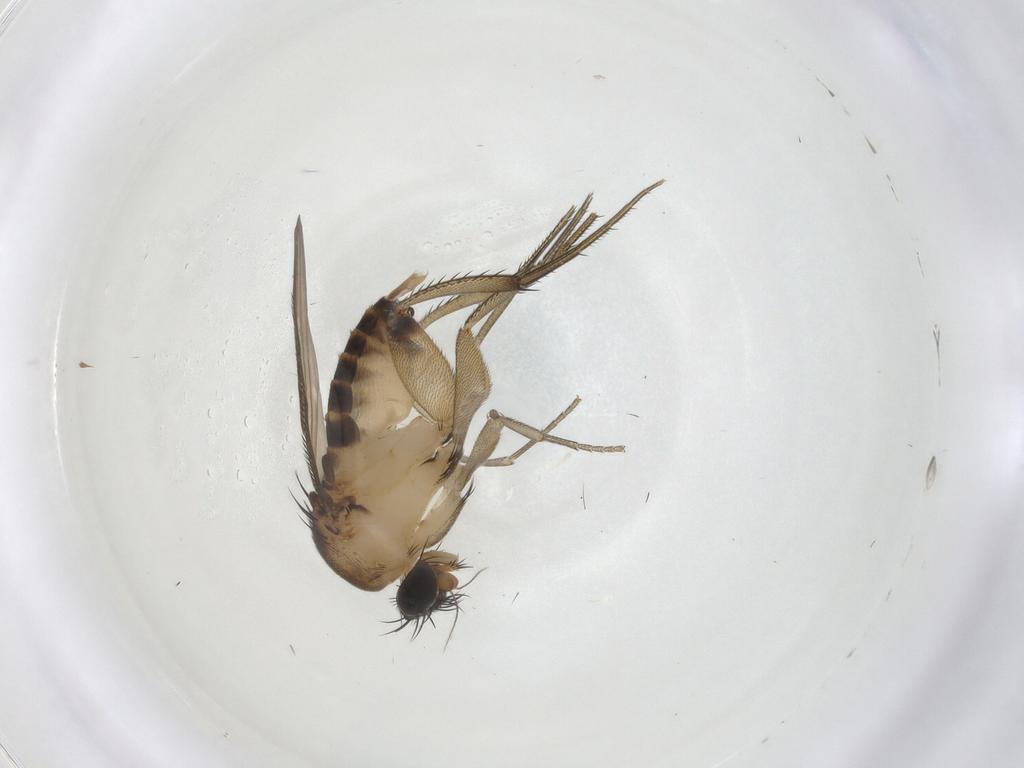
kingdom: Animalia
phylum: Arthropoda
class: Insecta
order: Diptera
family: Phoridae
